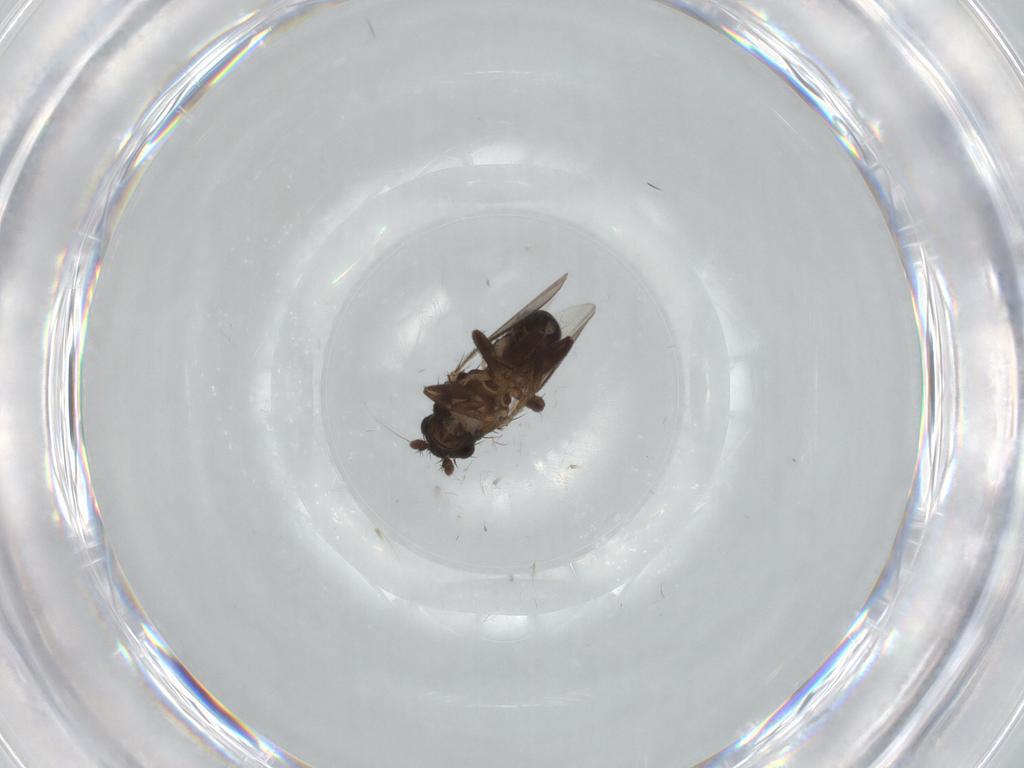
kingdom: Animalia
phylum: Arthropoda
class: Insecta
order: Diptera
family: Sphaeroceridae
